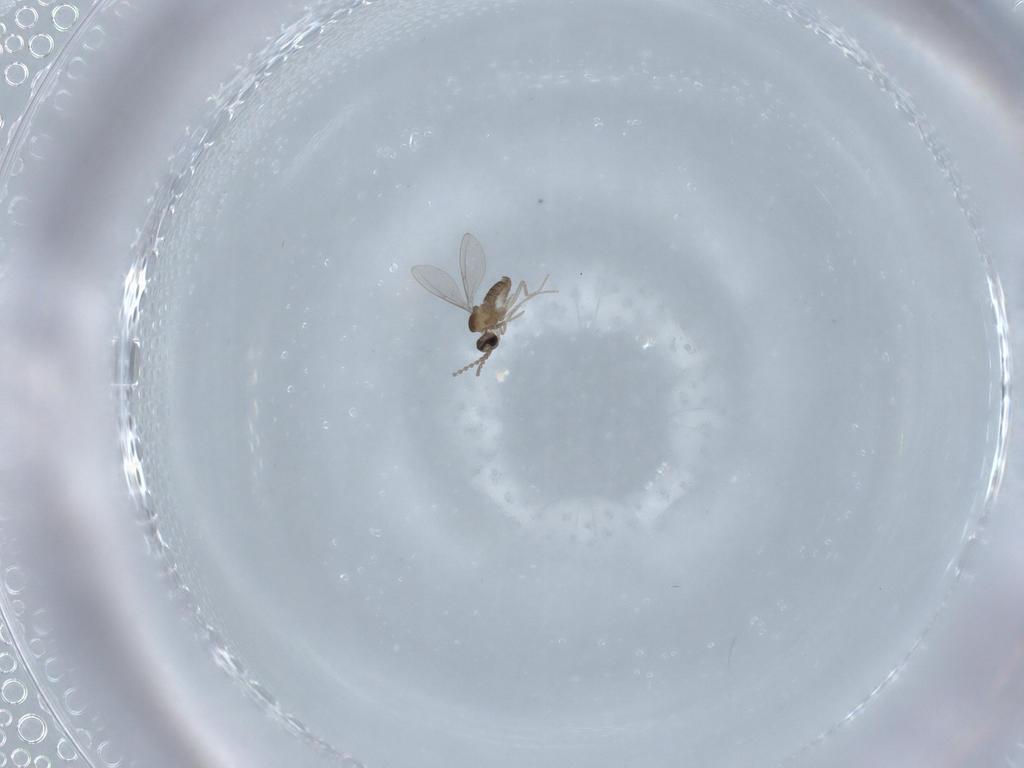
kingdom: Animalia
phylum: Arthropoda
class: Insecta
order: Diptera
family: Cecidomyiidae
